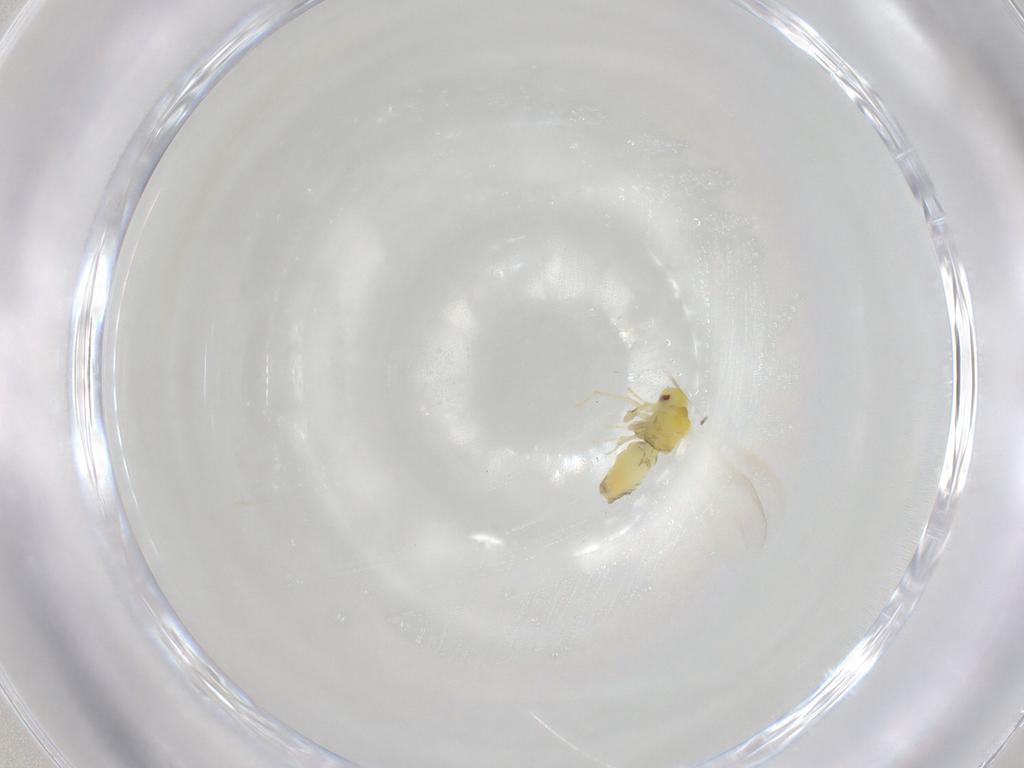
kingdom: Animalia
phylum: Arthropoda
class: Insecta
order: Hemiptera
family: Aleyrodidae
